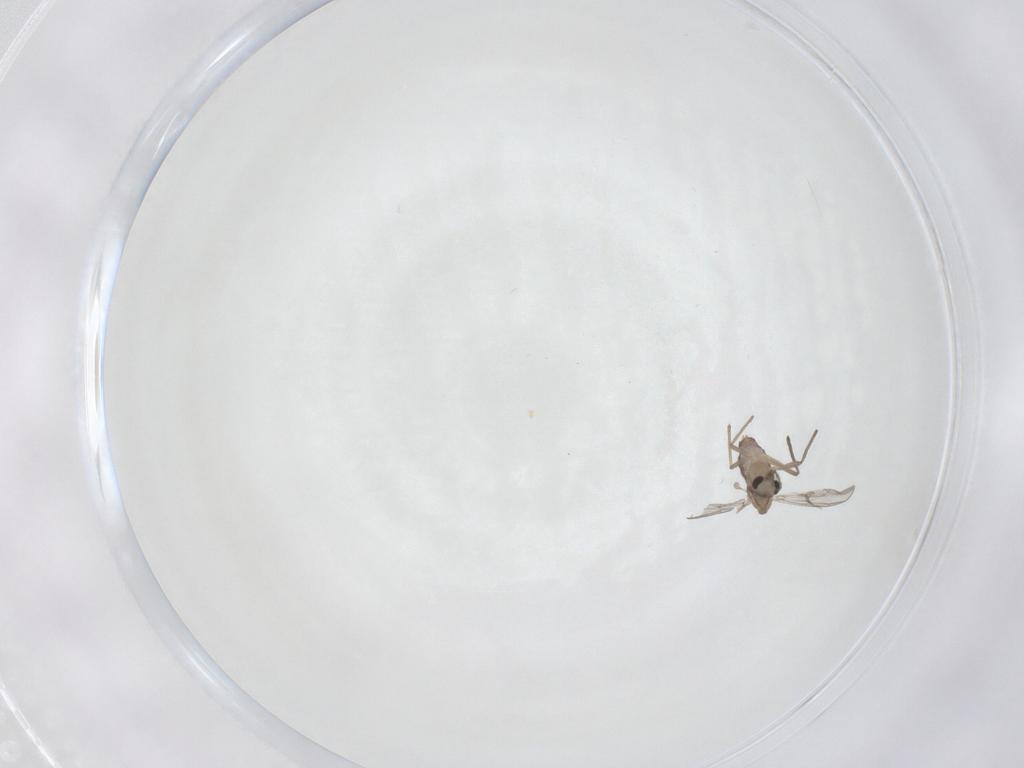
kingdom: Animalia
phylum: Arthropoda
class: Insecta
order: Diptera
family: Chironomidae
